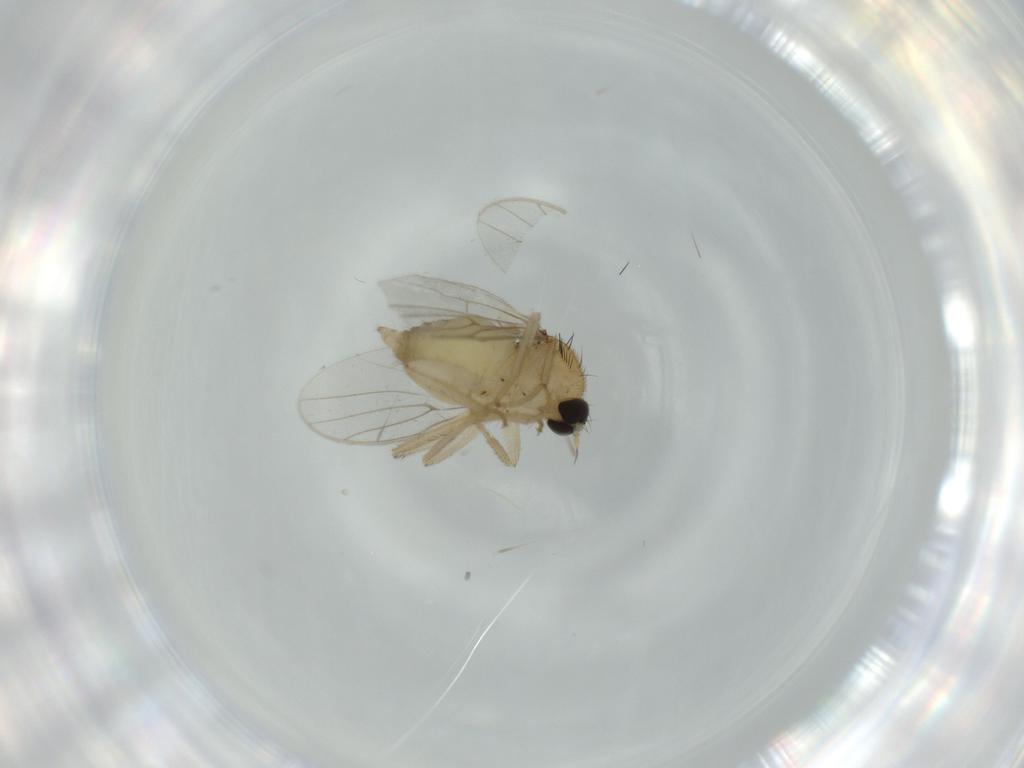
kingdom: Animalia
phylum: Arthropoda
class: Insecta
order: Diptera
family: Hybotidae
